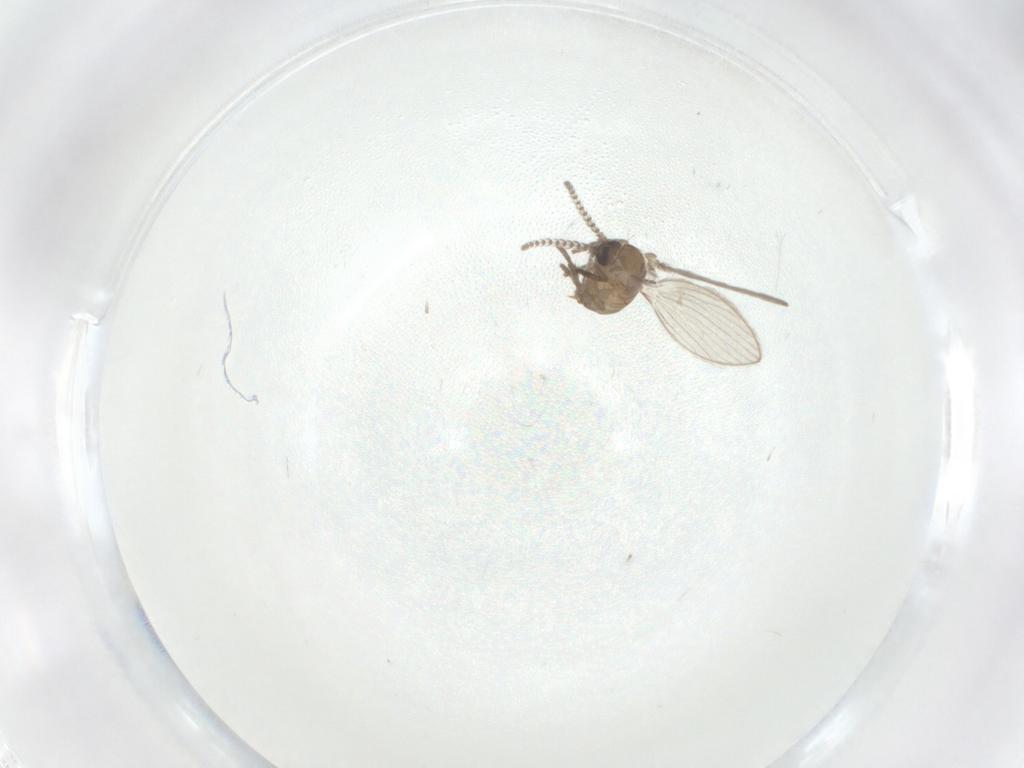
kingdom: Animalia
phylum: Arthropoda
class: Insecta
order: Diptera
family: Psychodidae
